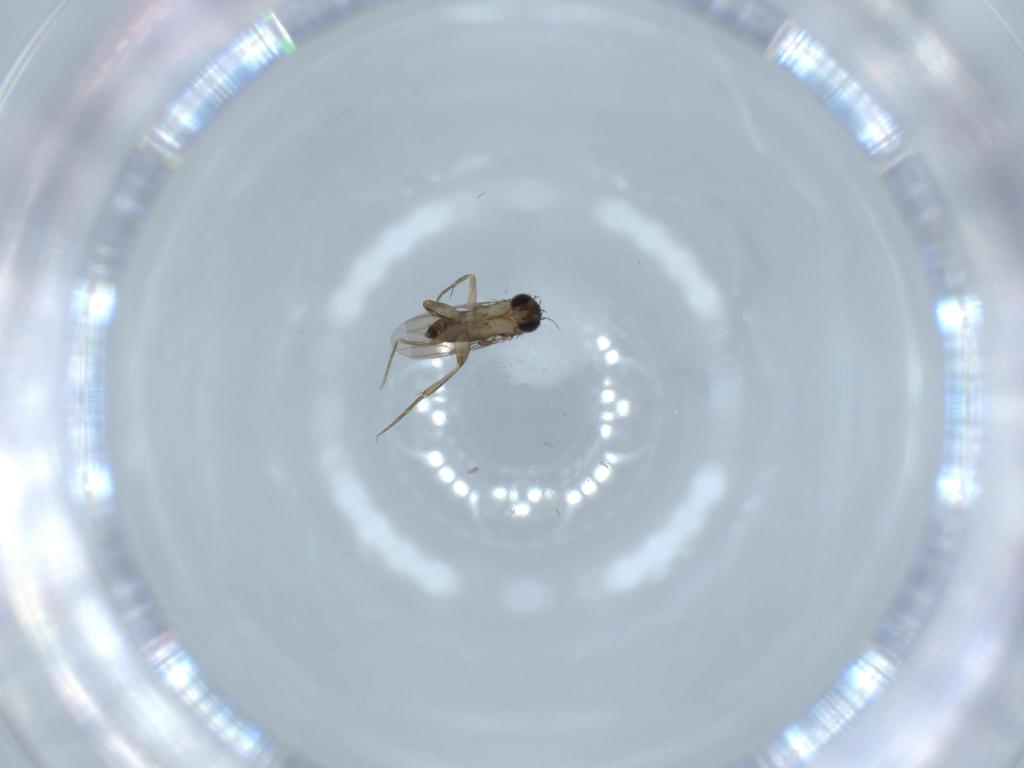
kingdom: Animalia
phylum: Arthropoda
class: Insecta
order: Diptera
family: Phoridae
